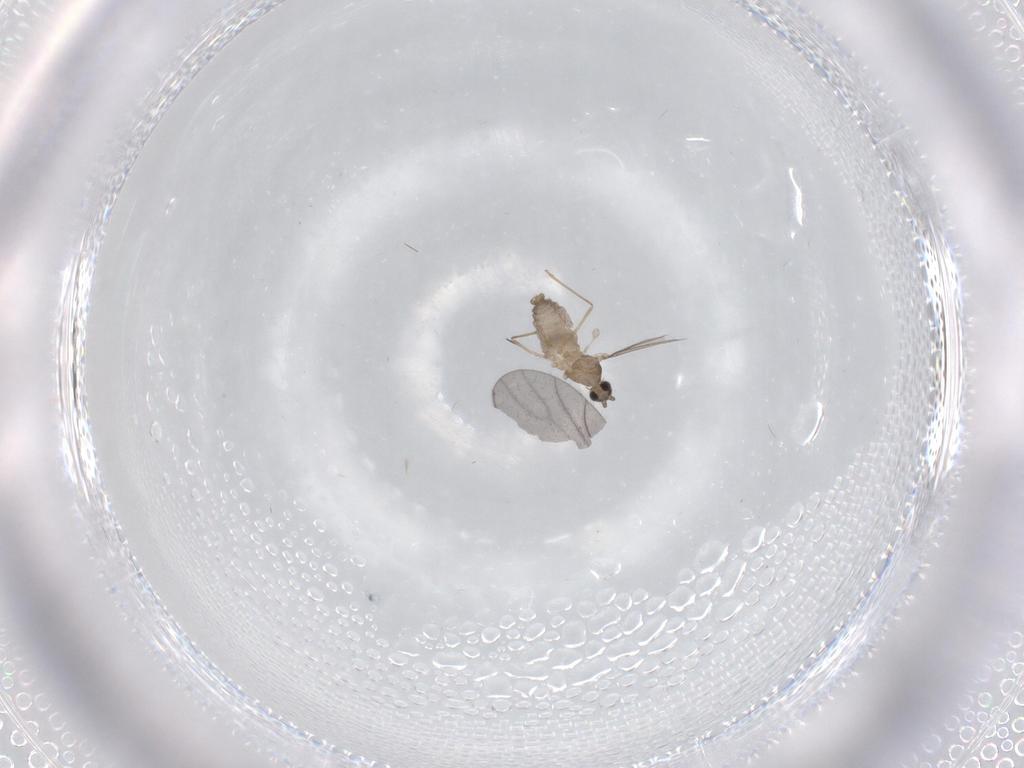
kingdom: Animalia
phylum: Arthropoda
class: Insecta
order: Diptera
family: Cecidomyiidae
